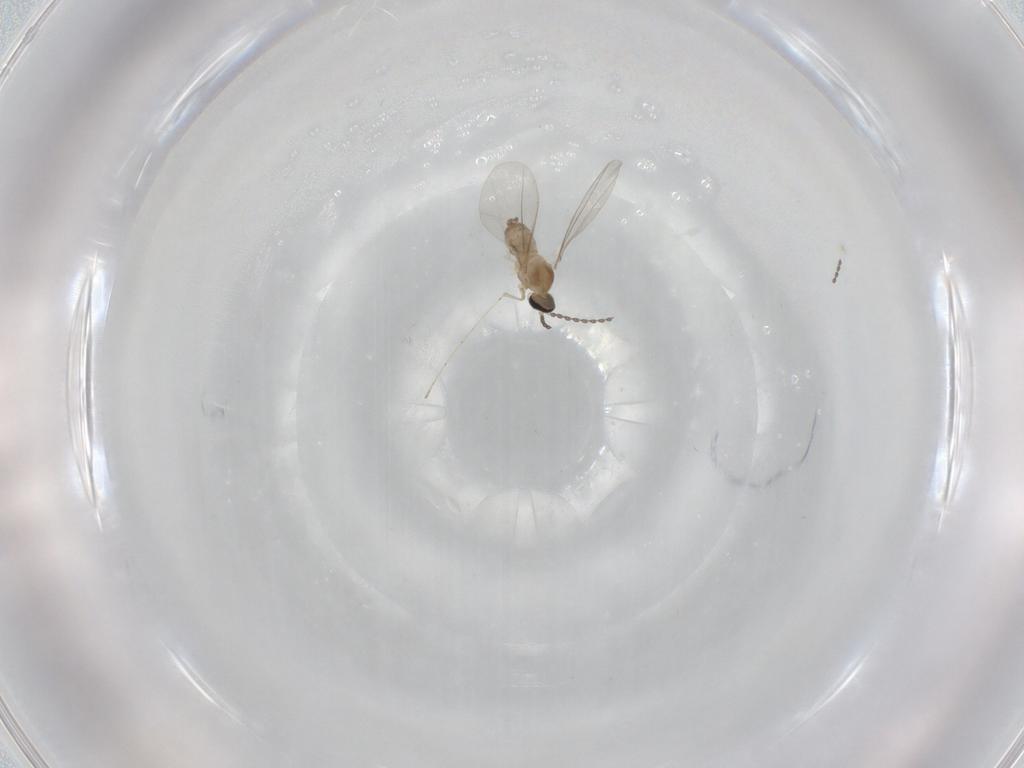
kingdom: Animalia
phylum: Arthropoda
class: Insecta
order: Diptera
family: Cecidomyiidae
